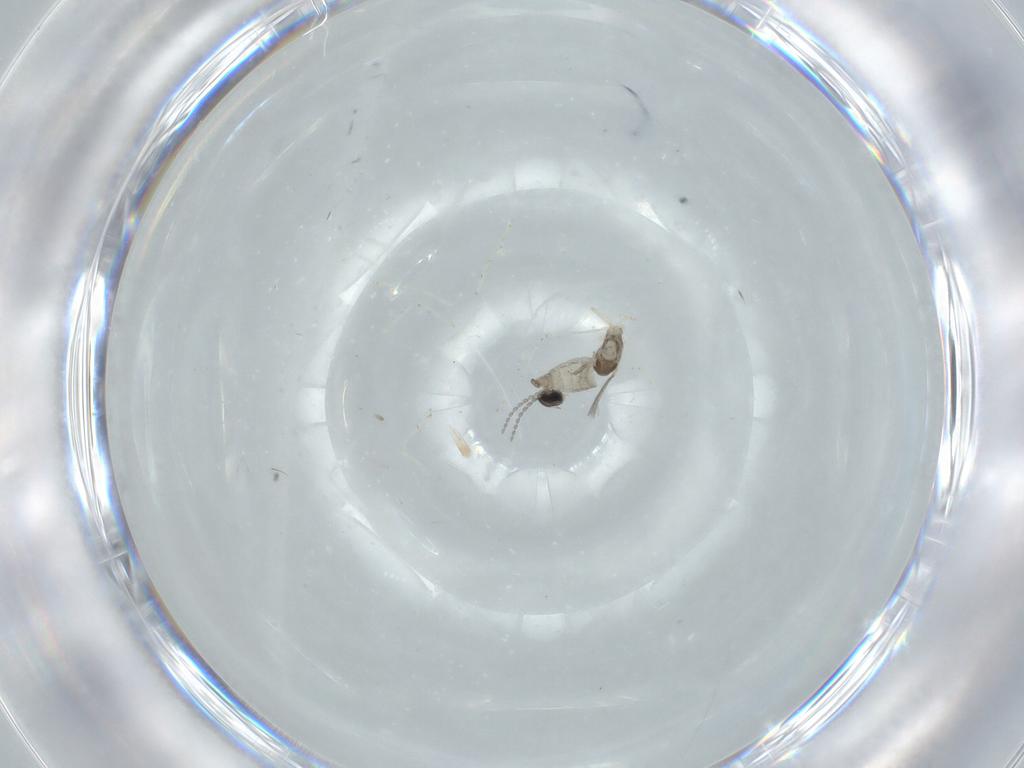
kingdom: Animalia
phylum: Arthropoda
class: Insecta
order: Diptera
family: Cecidomyiidae
